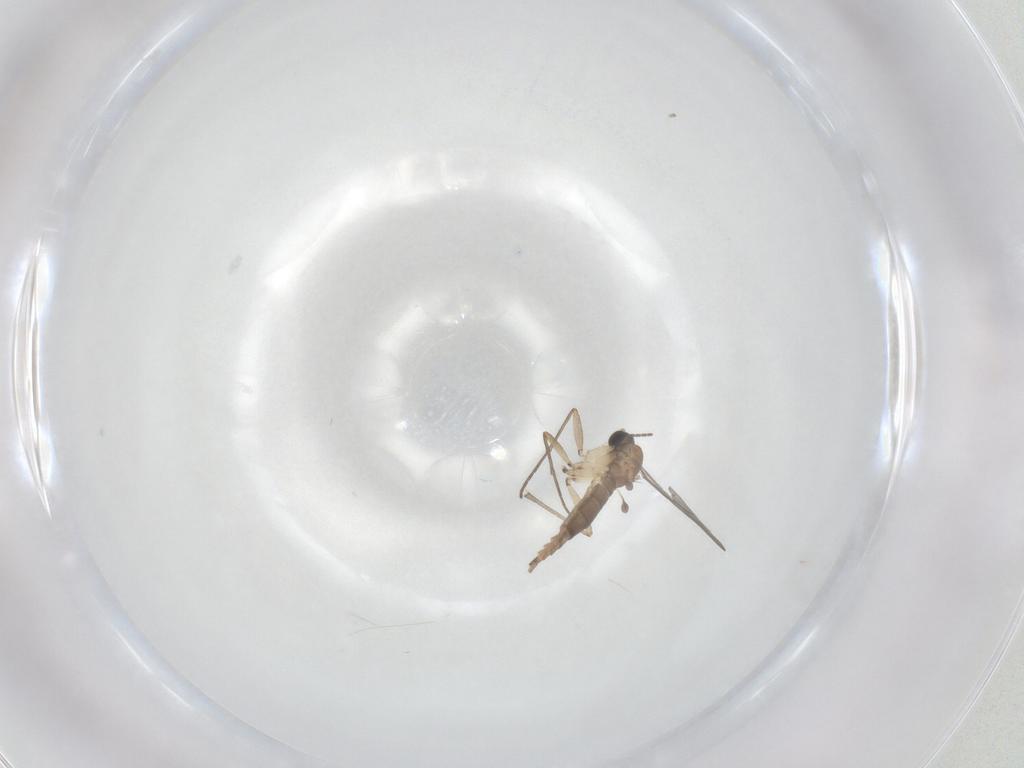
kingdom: Animalia
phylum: Arthropoda
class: Insecta
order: Diptera
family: Sciaridae
